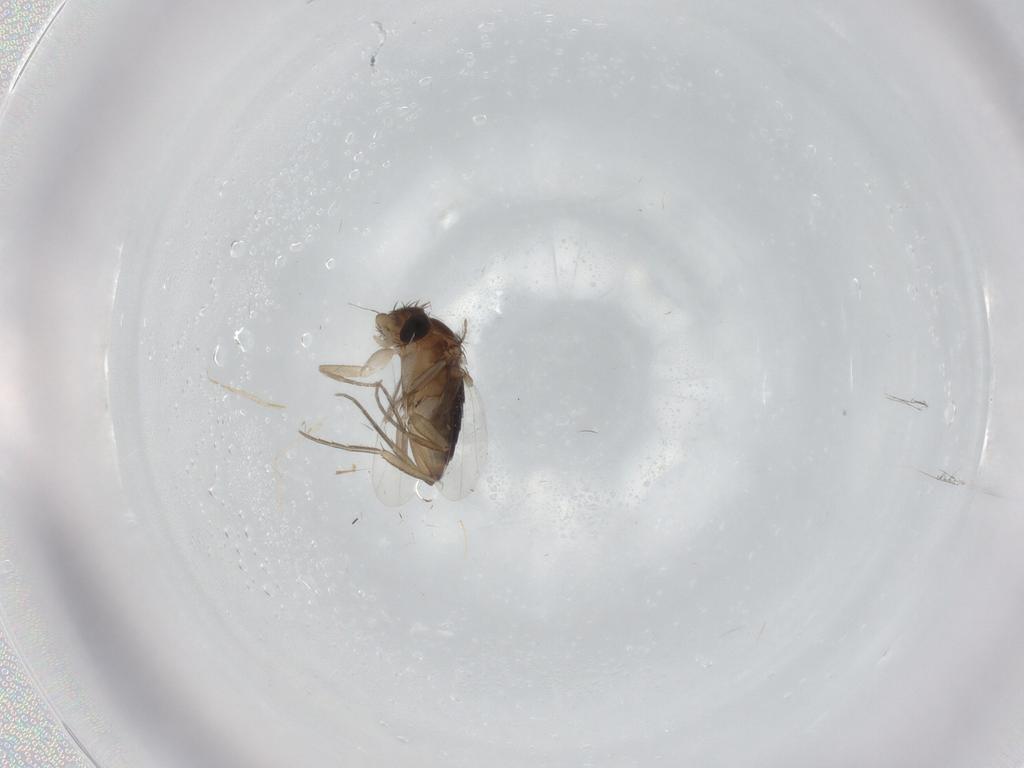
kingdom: Animalia
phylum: Arthropoda
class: Insecta
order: Diptera
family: Phoridae
